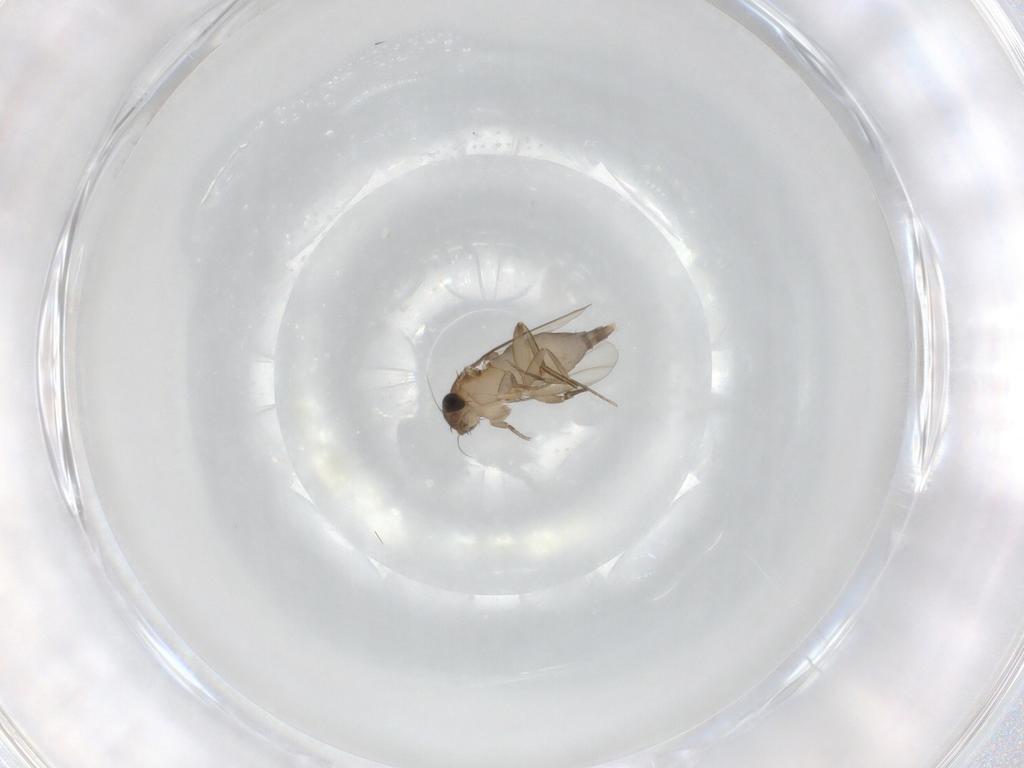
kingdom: Animalia
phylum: Arthropoda
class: Insecta
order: Diptera
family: Phoridae
